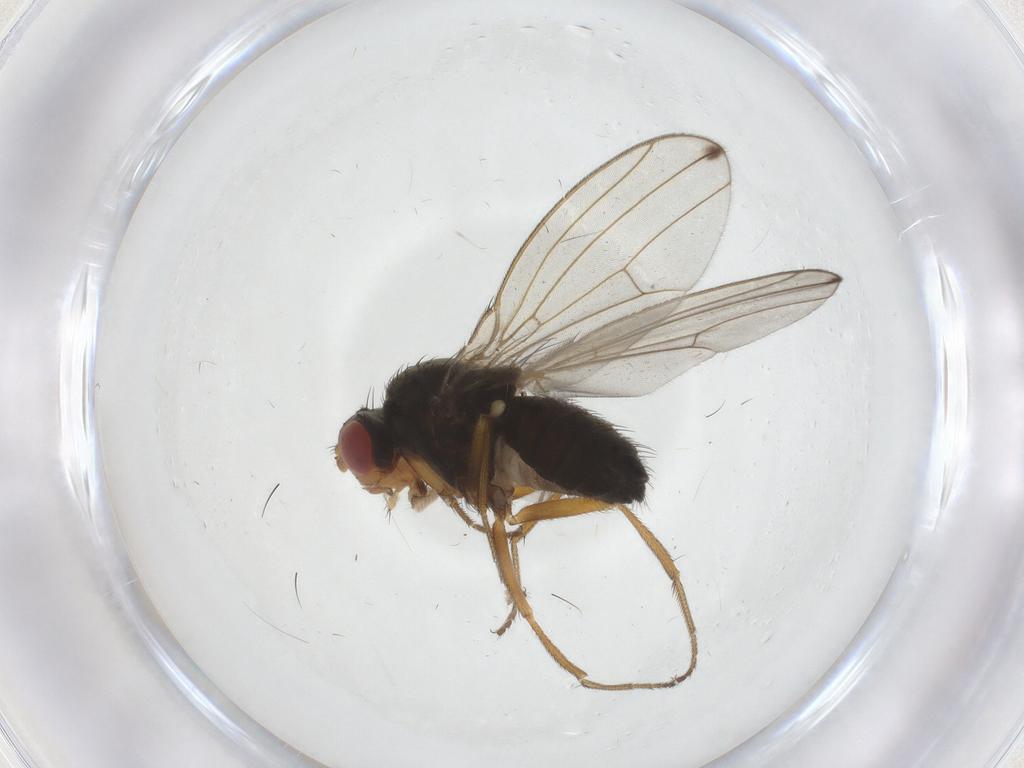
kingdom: Animalia
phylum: Arthropoda
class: Insecta
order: Diptera
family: Drosophilidae
